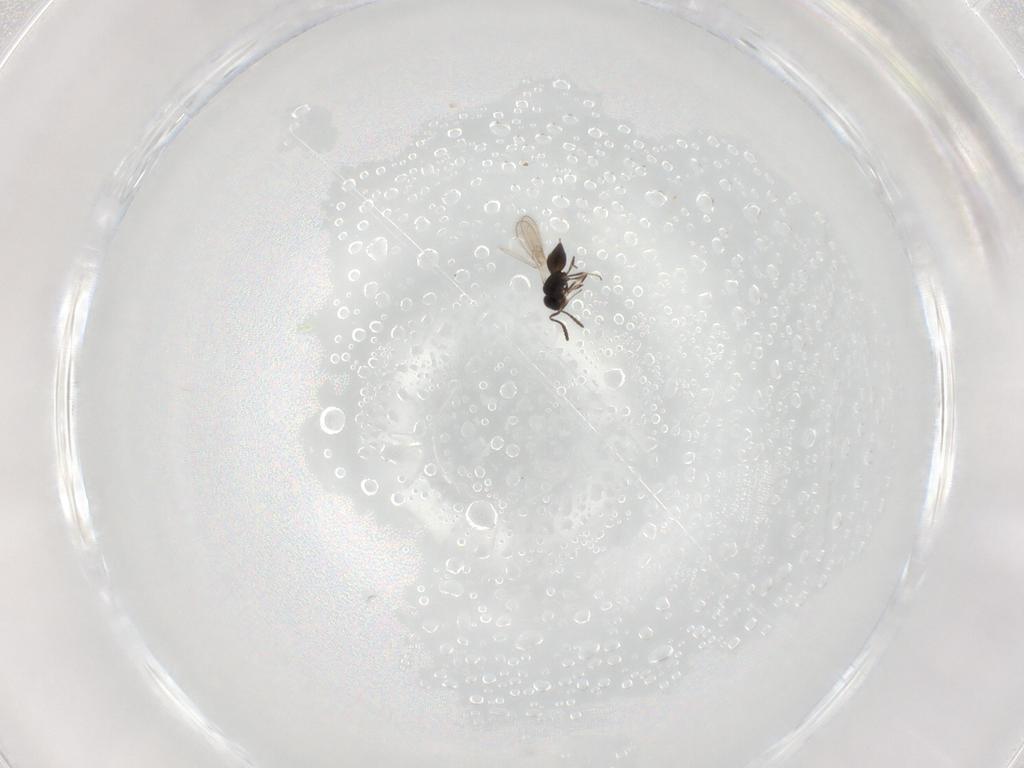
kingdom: Animalia
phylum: Arthropoda
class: Insecta
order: Hymenoptera
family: Scelionidae
